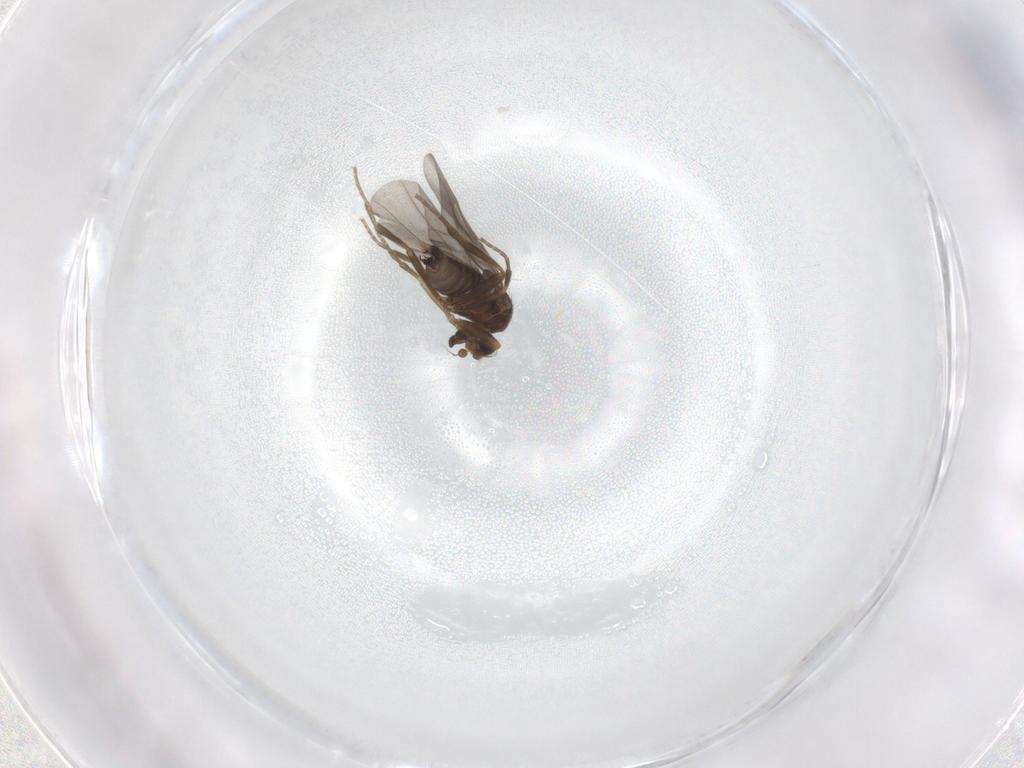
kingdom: Animalia
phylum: Arthropoda
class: Insecta
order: Diptera
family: Phoridae
